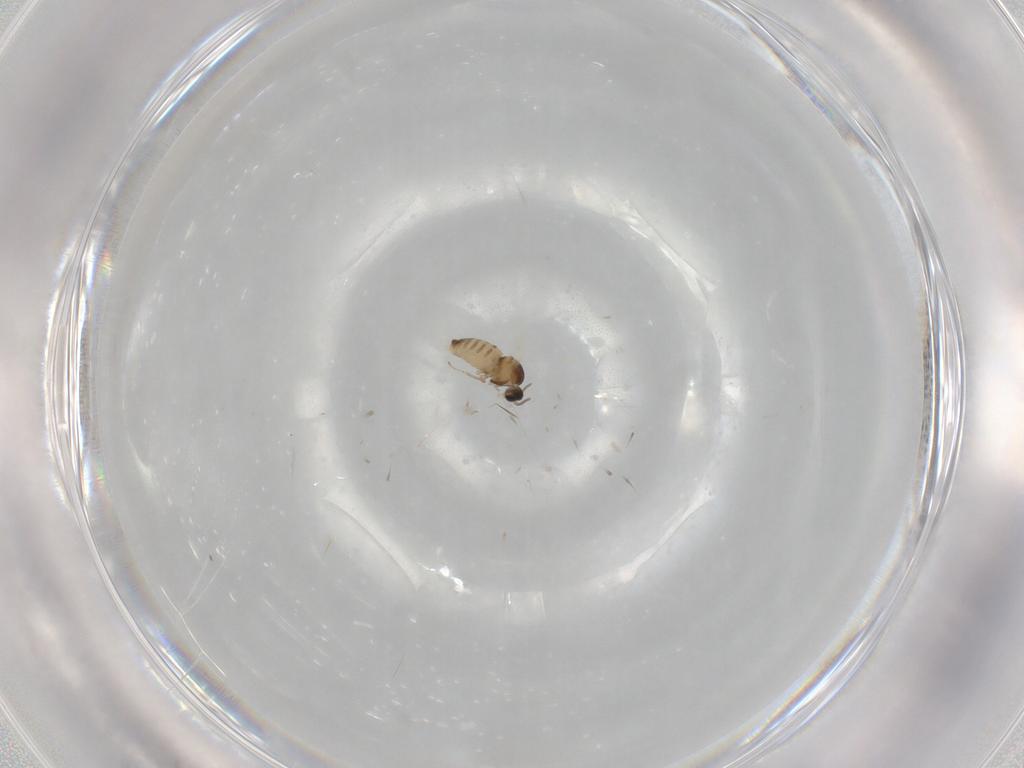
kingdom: Animalia
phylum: Arthropoda
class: Insecta
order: Diptera
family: Cecidomyiidae
